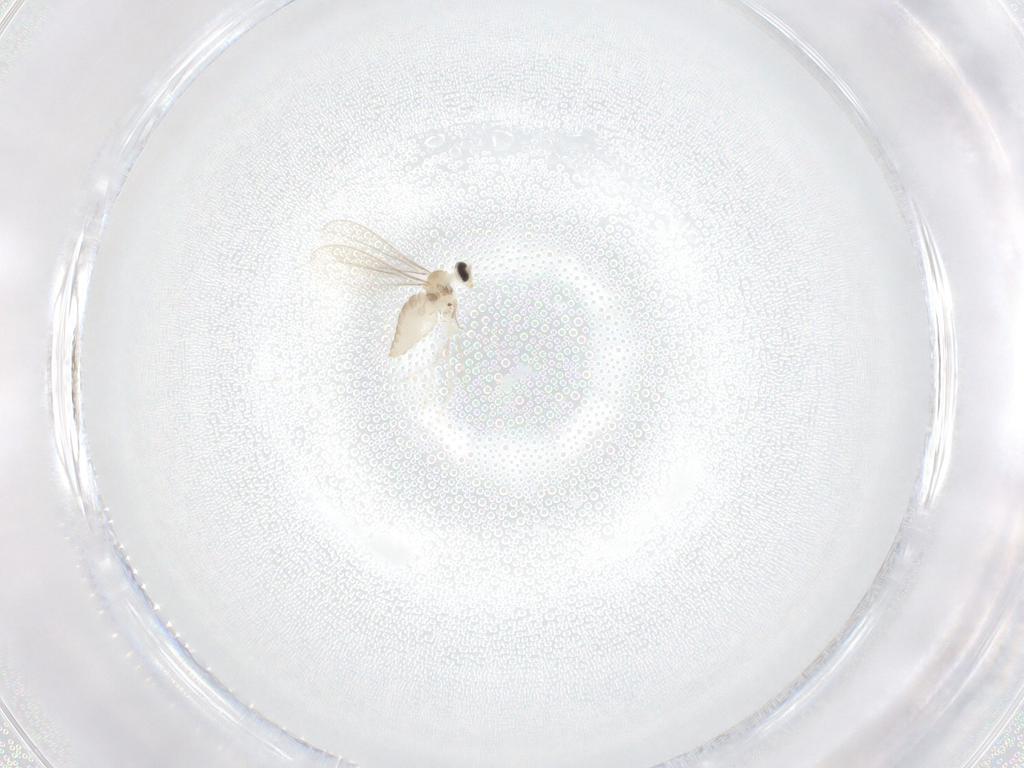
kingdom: Animalia
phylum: Arthropoda
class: Insecta
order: Diptera
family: Cecidomyiidae
